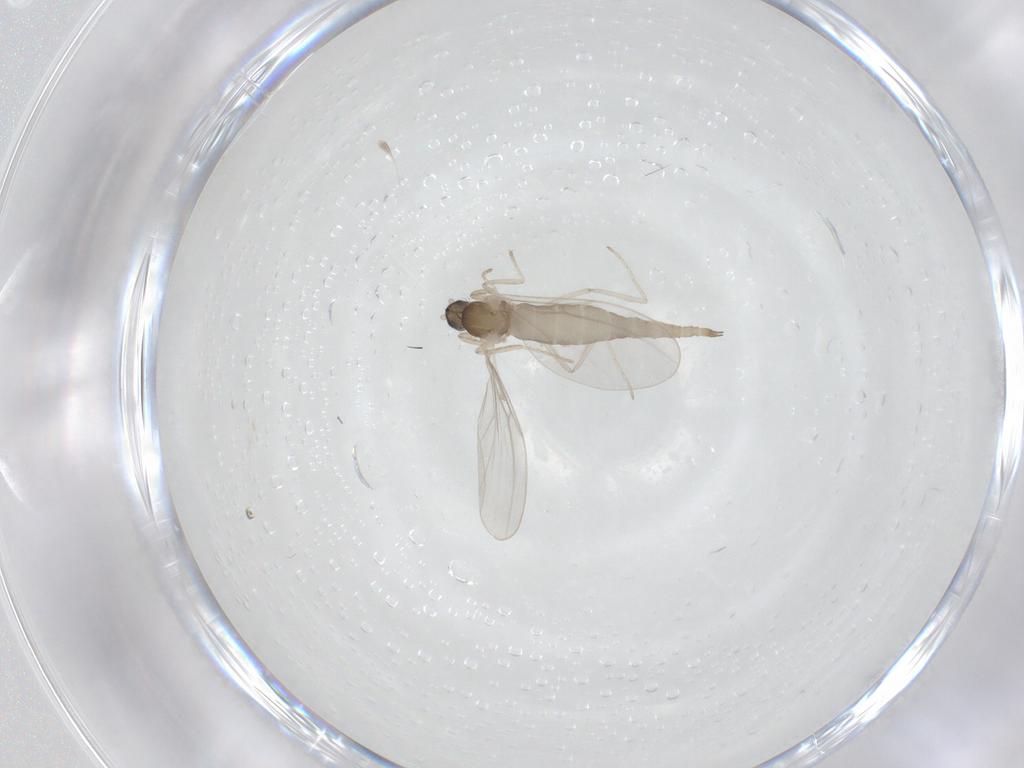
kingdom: Animalia
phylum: Arthropoda
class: Insecta
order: Diptera
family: Cecidomyiidae
